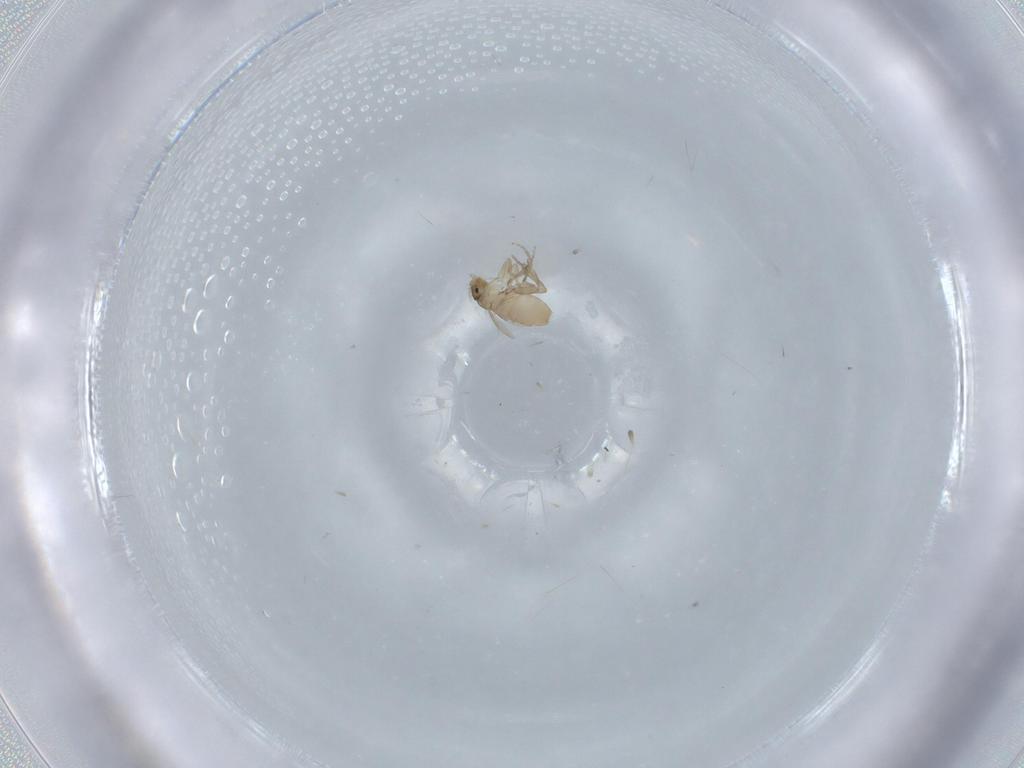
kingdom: Animalia
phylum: Arthropoda
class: Insecta
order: Diptera
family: Phoridae
